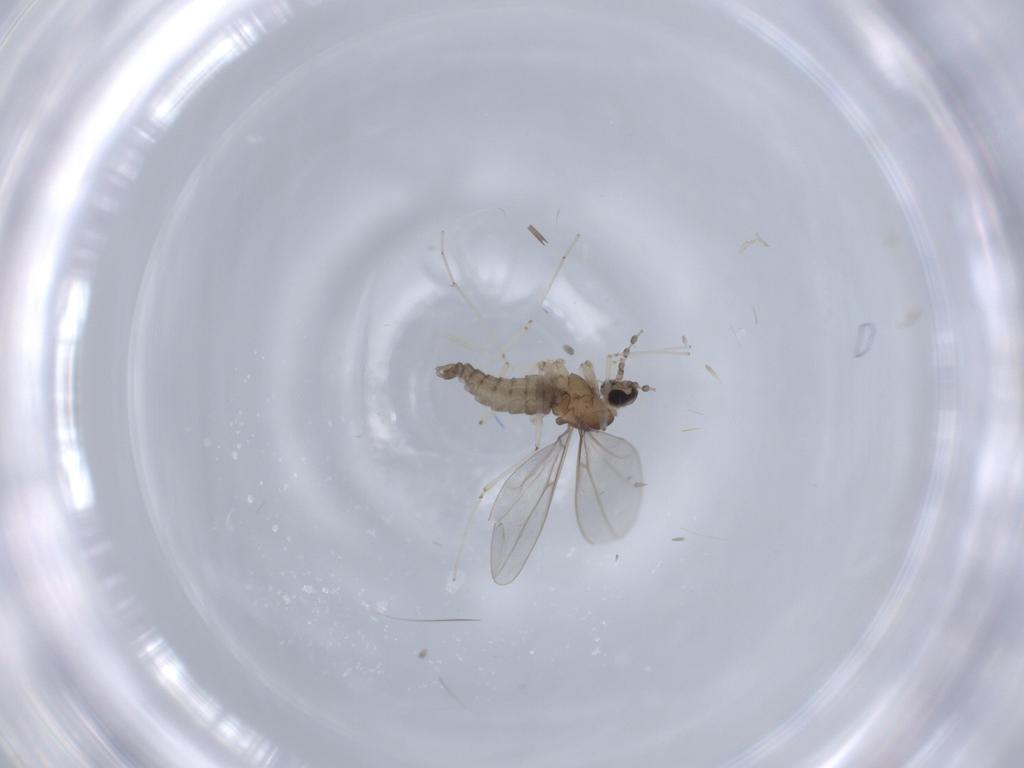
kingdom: Animalia
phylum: Arthropoda
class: Insecta
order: Diptera
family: Cecidomyiidae
